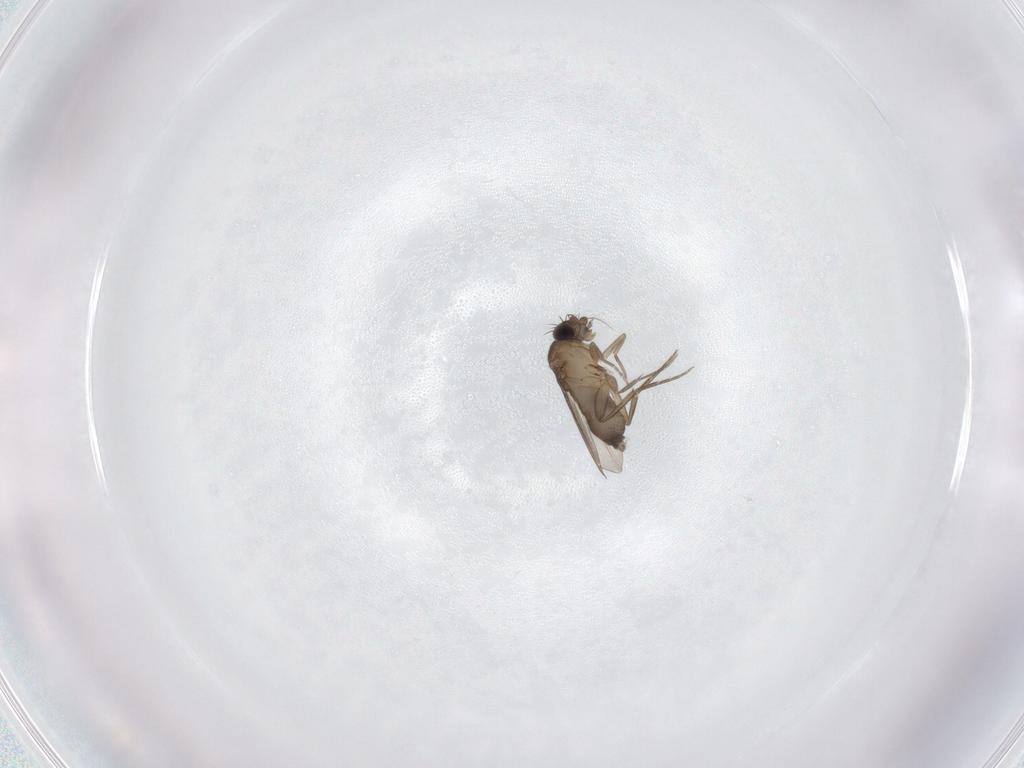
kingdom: Animalia
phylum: Arthropoda
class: Insecta
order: Diptera
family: Phoridae
